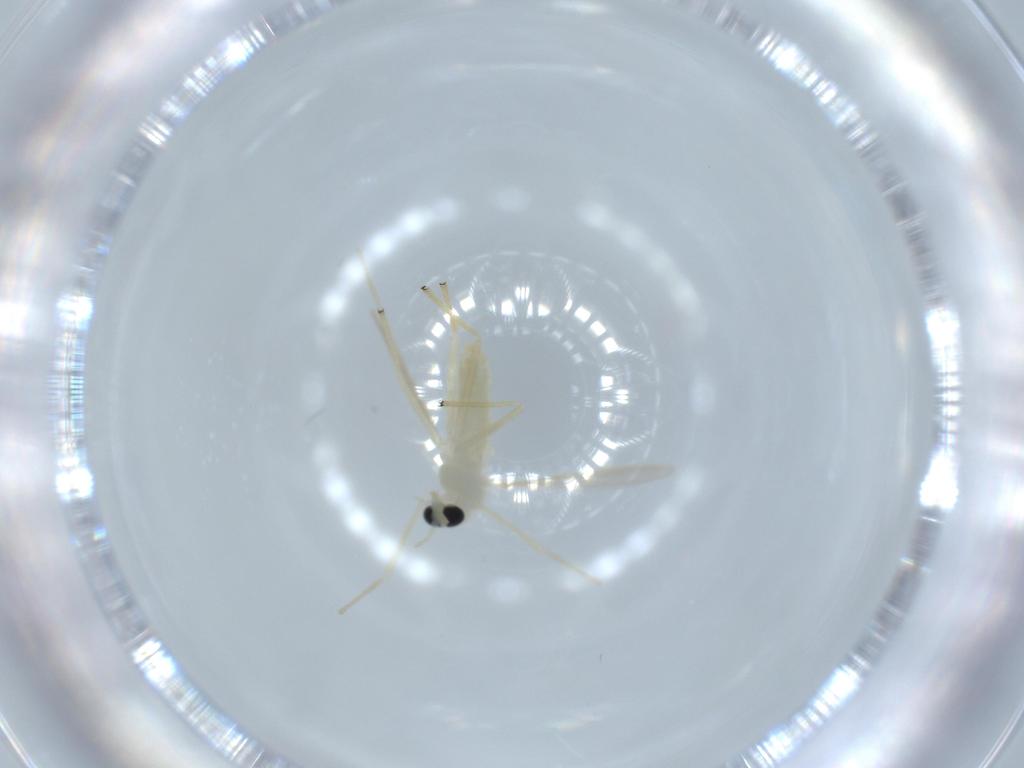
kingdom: Animalia
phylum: Arthropoda
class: Insecta
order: Diptera
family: Chironomidae
